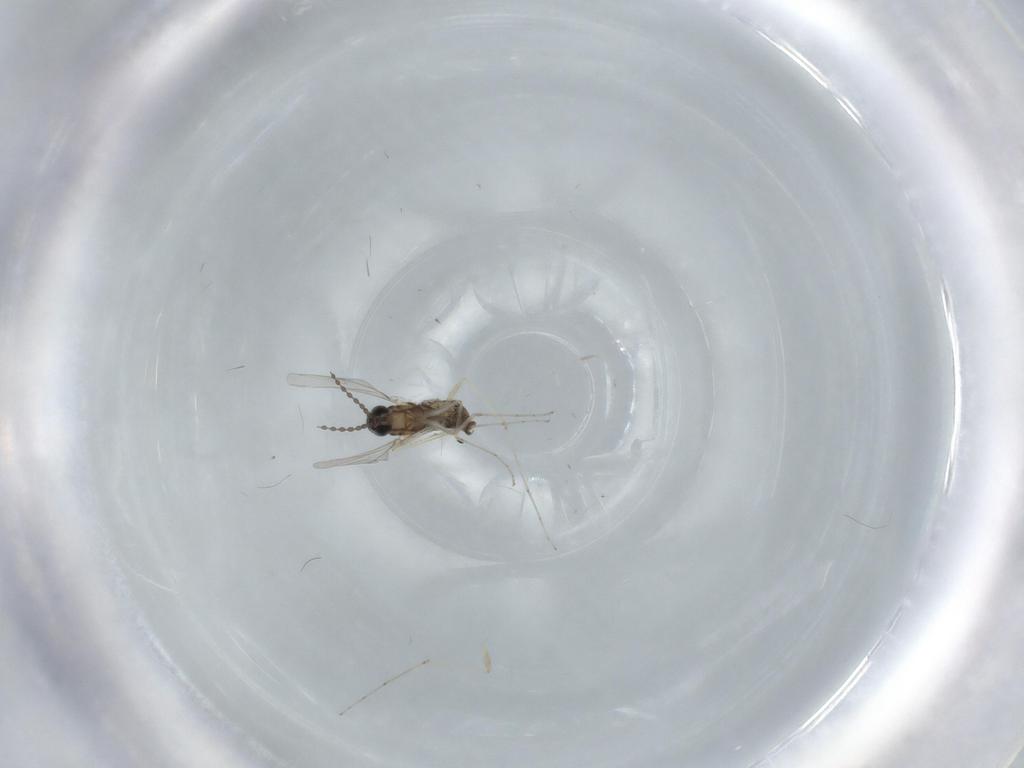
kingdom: Animalia
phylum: Arthropoda
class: Insecta
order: Diptera
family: Cecidomyiidae
